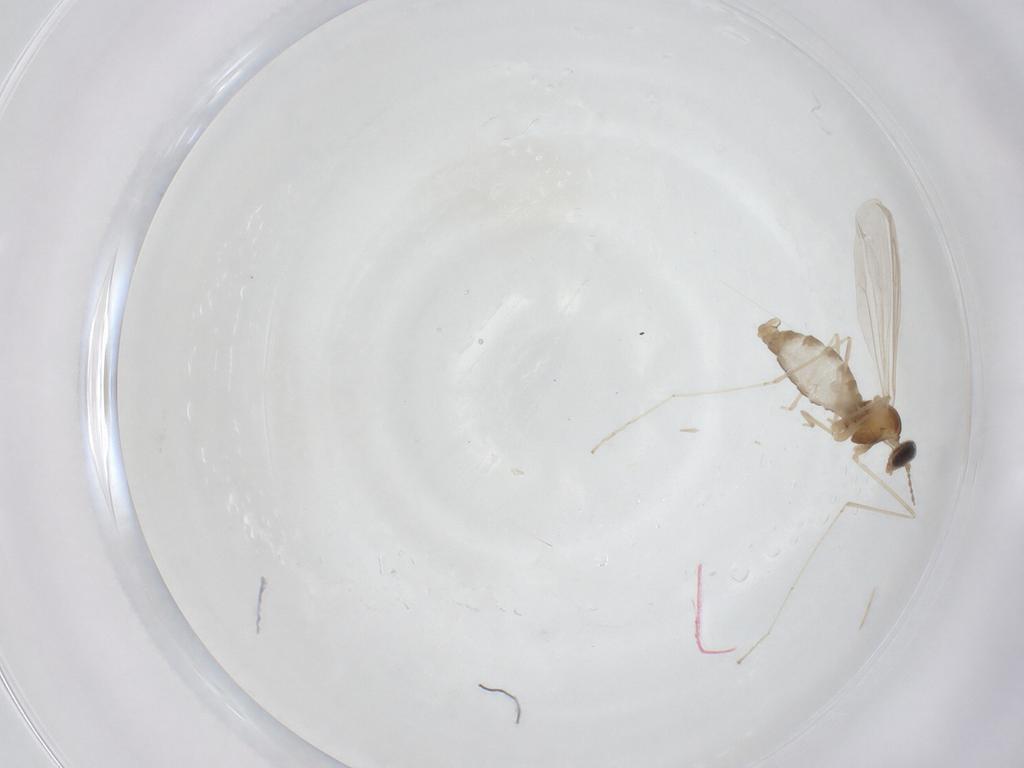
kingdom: Animalia
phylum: Arthropoda
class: Insecta
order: Diptera
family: Cecidomyiidae
